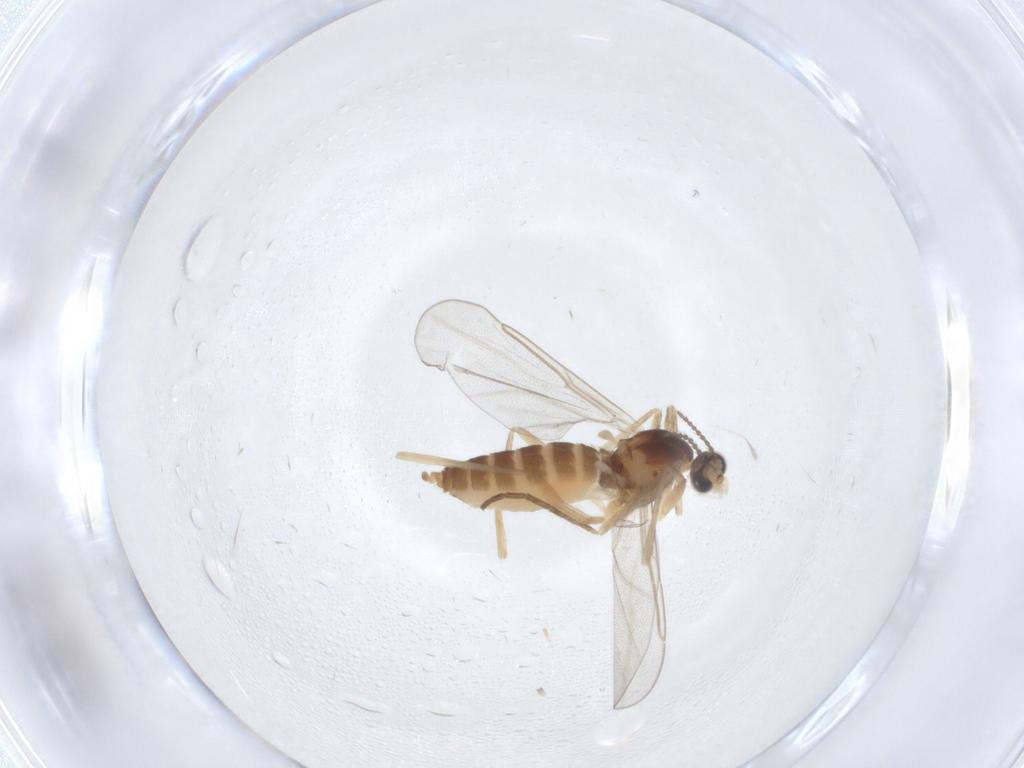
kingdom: Animalia
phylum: Arthropoda
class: Insecta
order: Diptera
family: Cecidomyiidae
